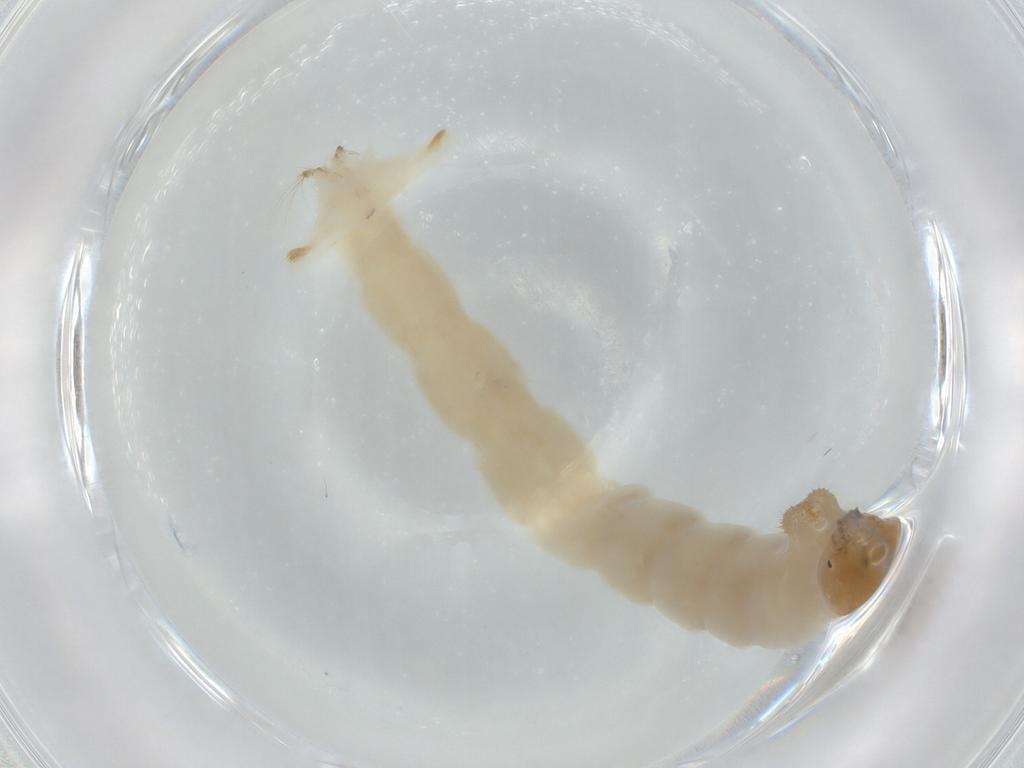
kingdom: Animalia
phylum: Arthropoda
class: Insecta
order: Diptera
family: Chironomidae
